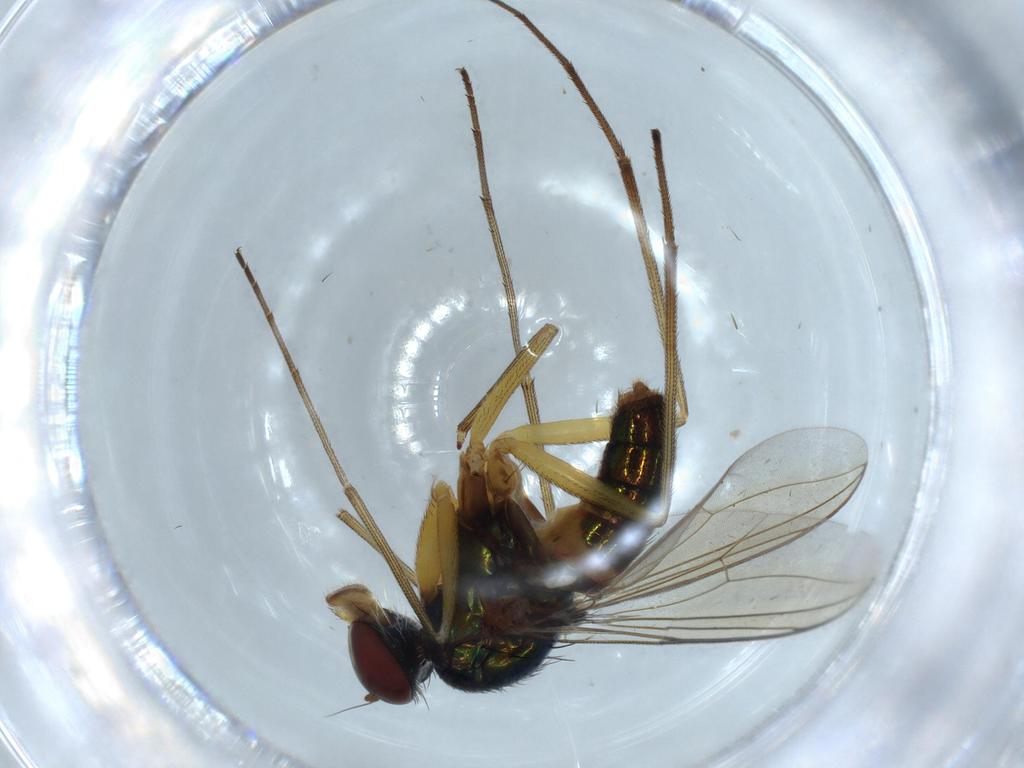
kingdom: Animalia
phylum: Arthropoda
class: Insecta
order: Diptera
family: Dolichopodidae
